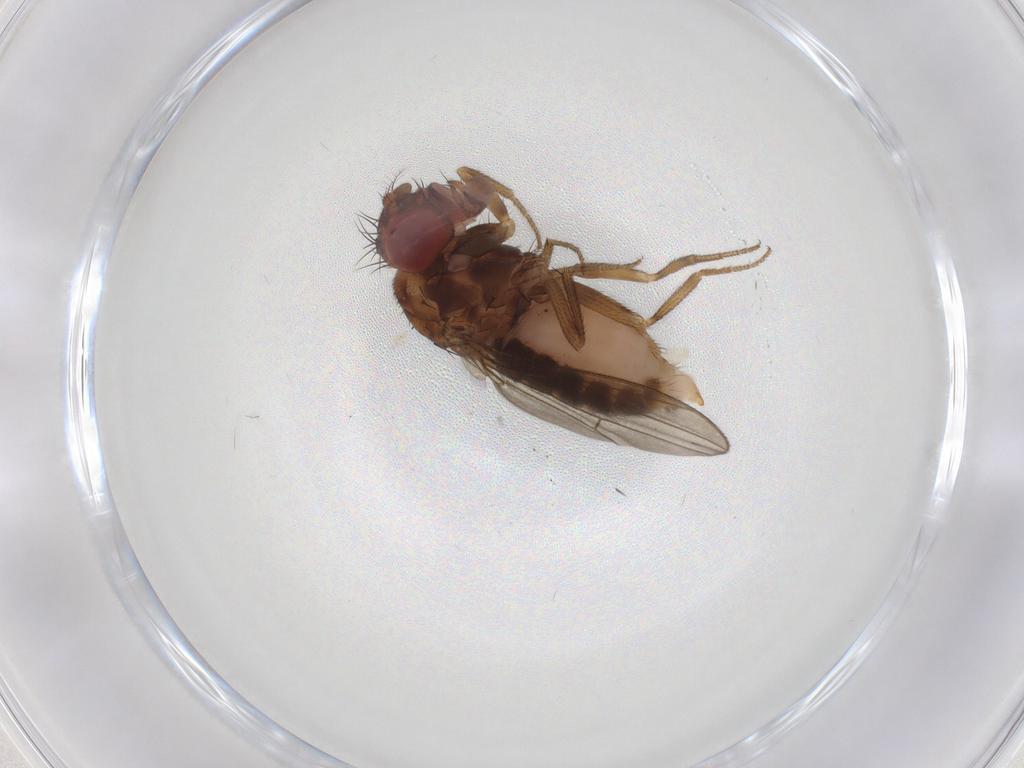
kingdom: Animalia
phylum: Arthropoda
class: Insecta
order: Diptera
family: Drosophilidae
